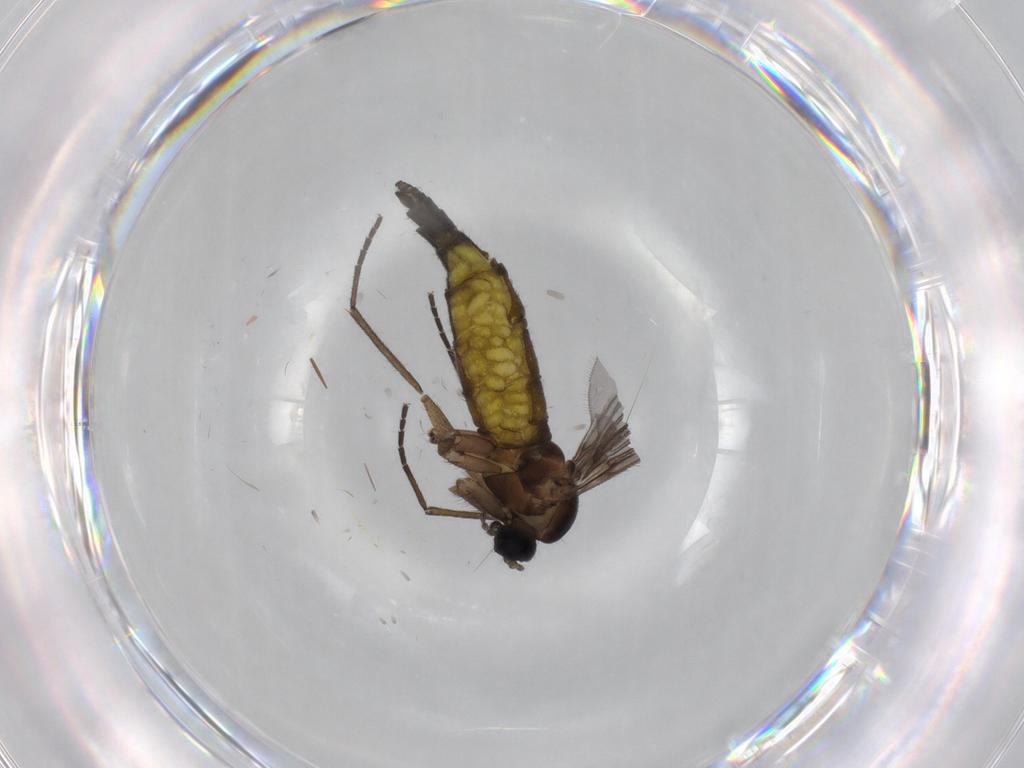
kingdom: Animalia
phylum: Arthropoda
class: Insecta
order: Diptera
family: Sciaridae
